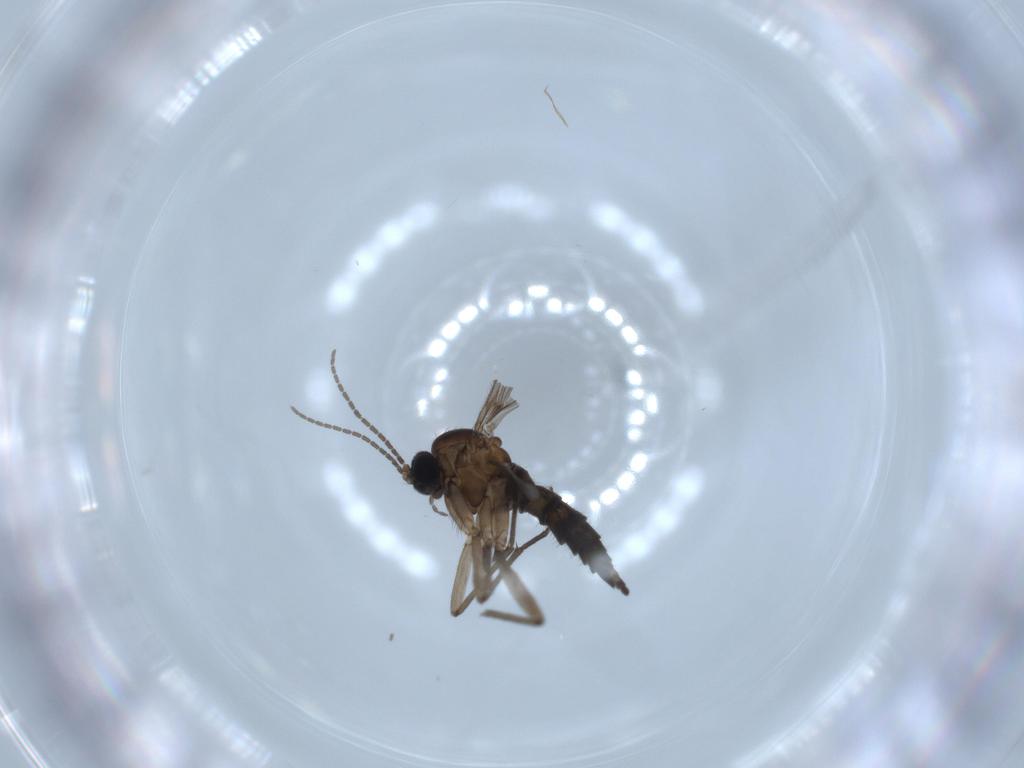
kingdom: Animalia
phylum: Arthropoda
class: Insecta
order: Diptera
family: Sciaridae
